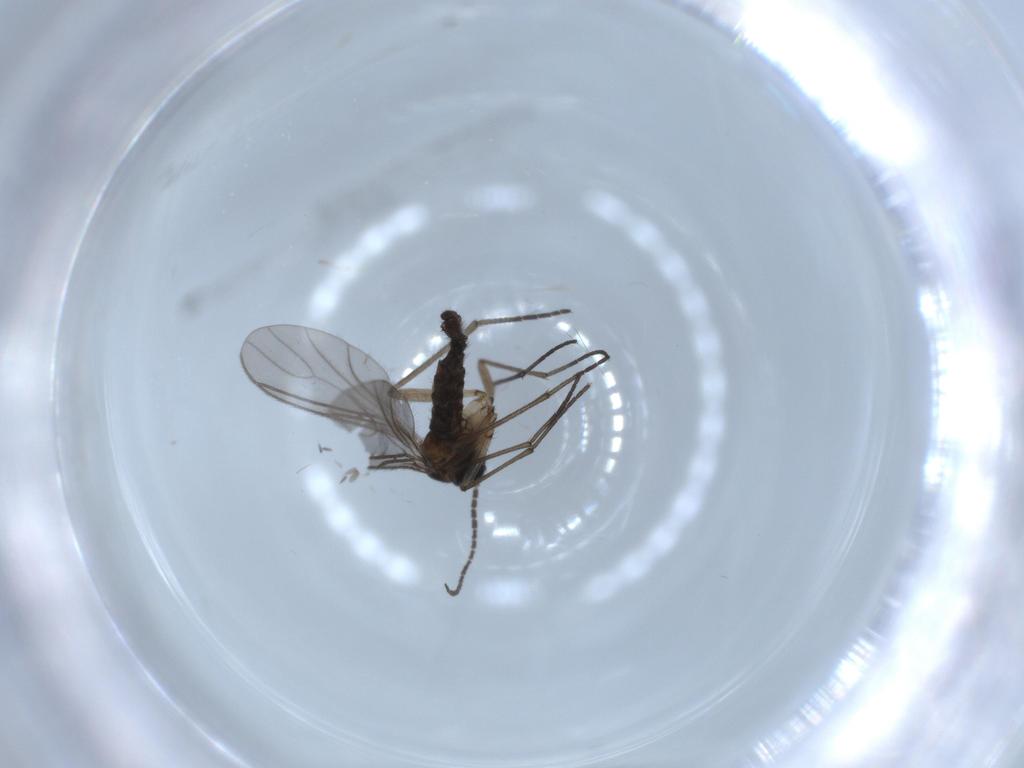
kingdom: Animalia
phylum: Arthropoda
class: Insecta
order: Diptera
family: Sciaridae
